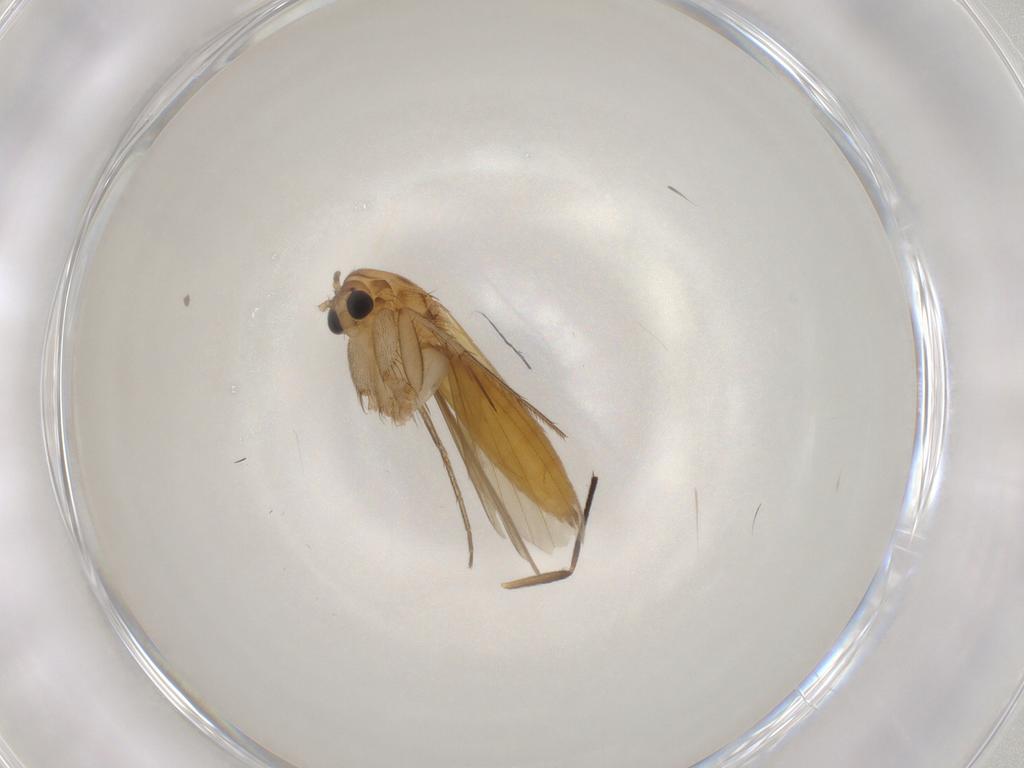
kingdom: Animalia
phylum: Arthropoda
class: Insecta
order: Diptera
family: Mycetophilidae
